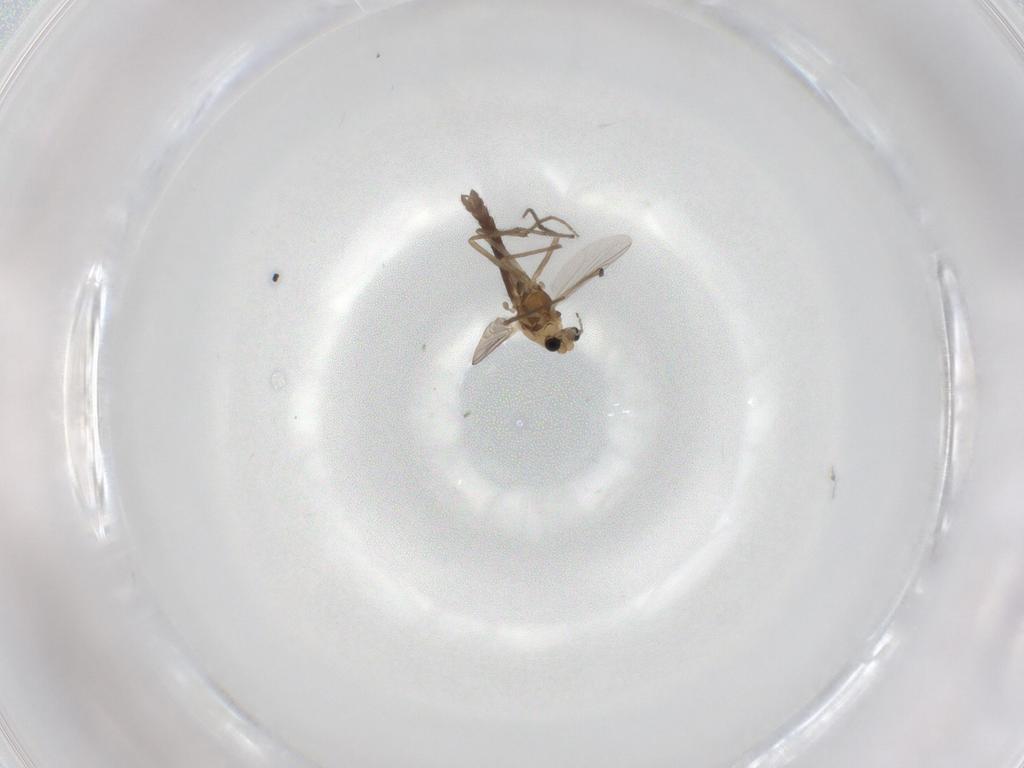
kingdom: Animalia
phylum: Arthropoda
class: Insecta
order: Diptera
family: Chironomidae
